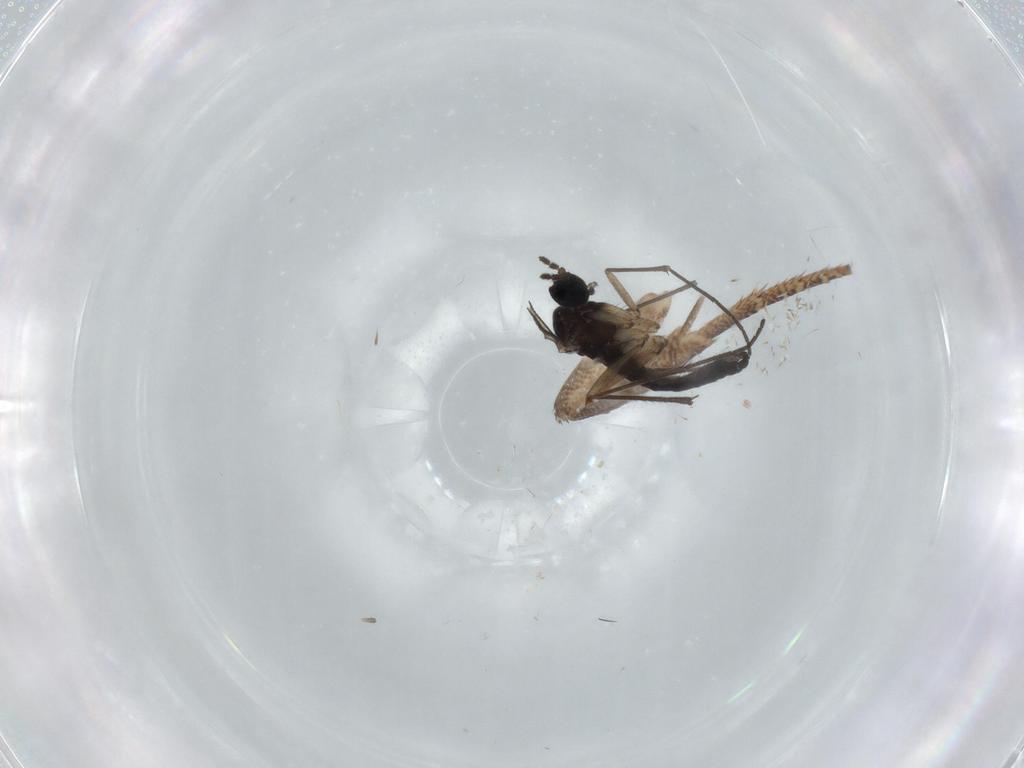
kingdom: Animalia
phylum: Arthropoda
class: Insecta
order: Diptera
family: Sciaridae
